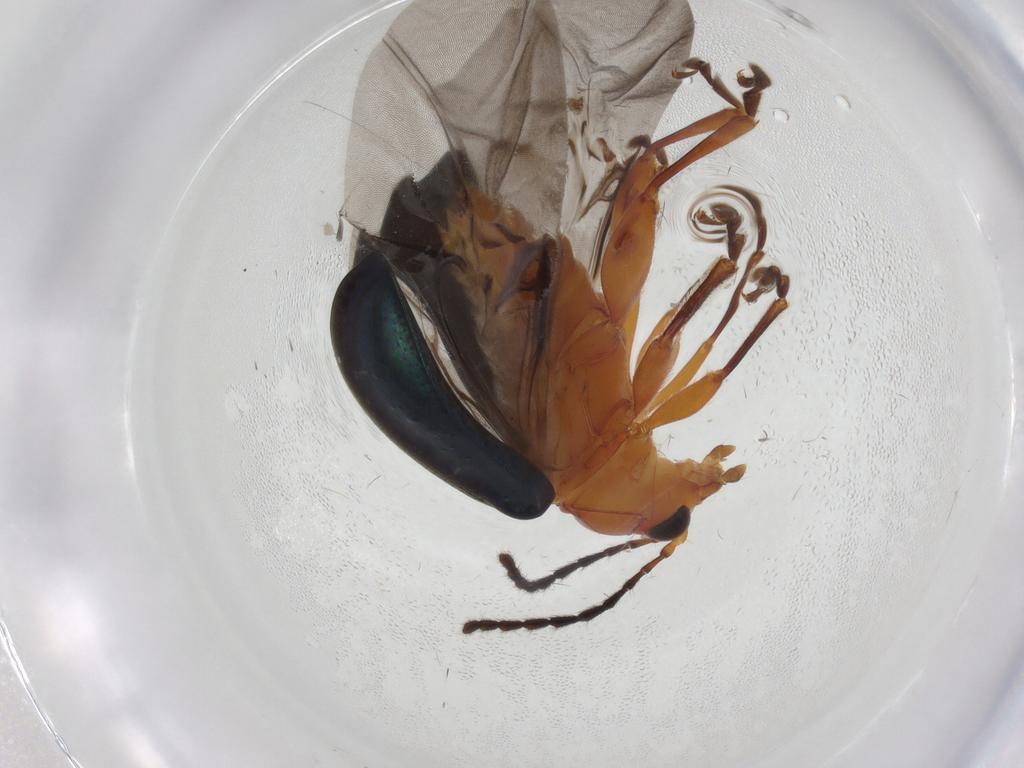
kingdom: Animalia
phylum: Arthropoda
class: Insecta
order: Coleoptera
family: Chrysomelidae
